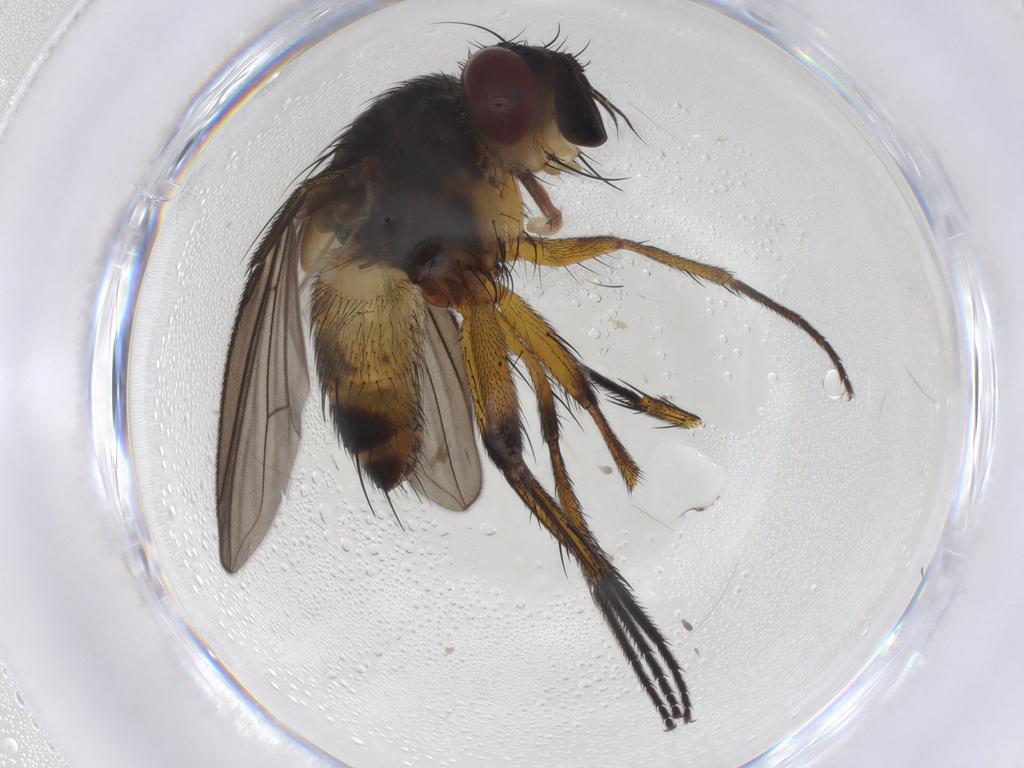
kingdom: Animalia
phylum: Arthropoda
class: Insecta
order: Diptera
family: Tachinidae
